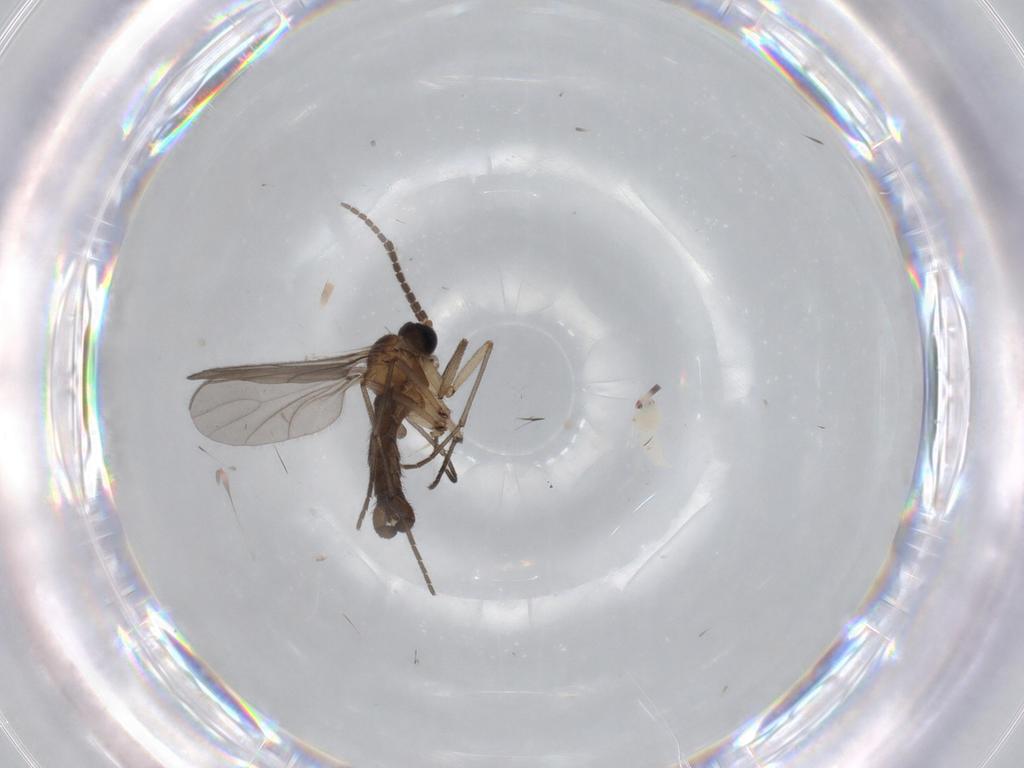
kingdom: Animalia
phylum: Arthropoda
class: Insecta
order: Diptera
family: Sciaridae
